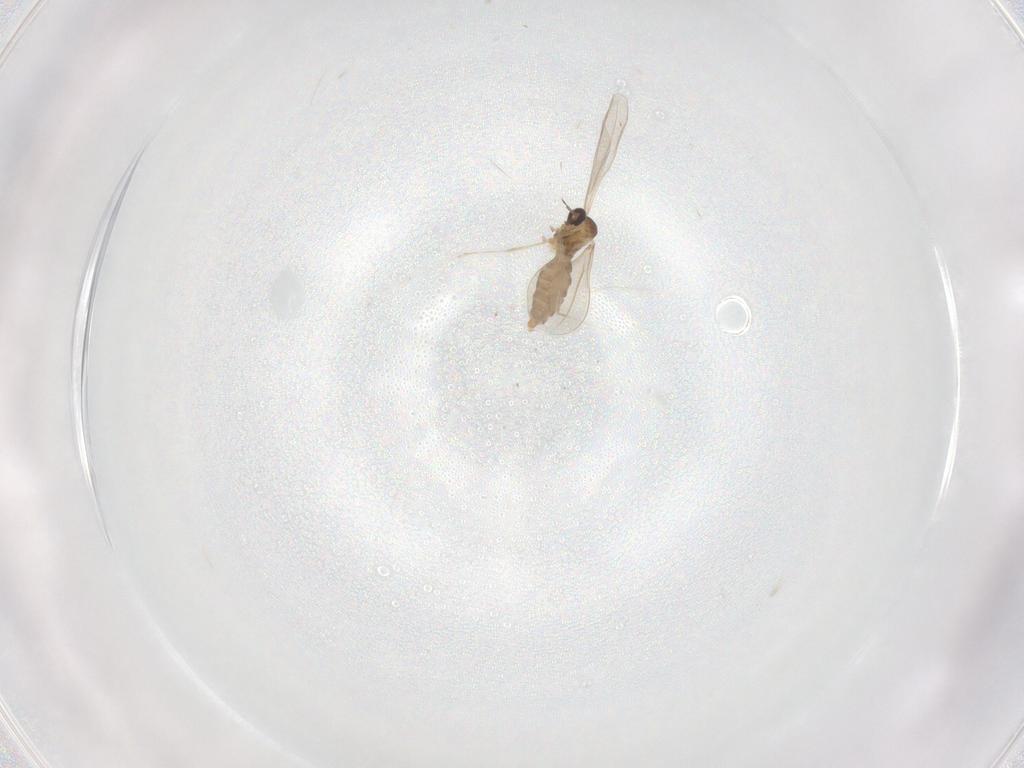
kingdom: Animalia
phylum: Arthropoda
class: Insecta
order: Diptera
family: Cecidomyiidae
